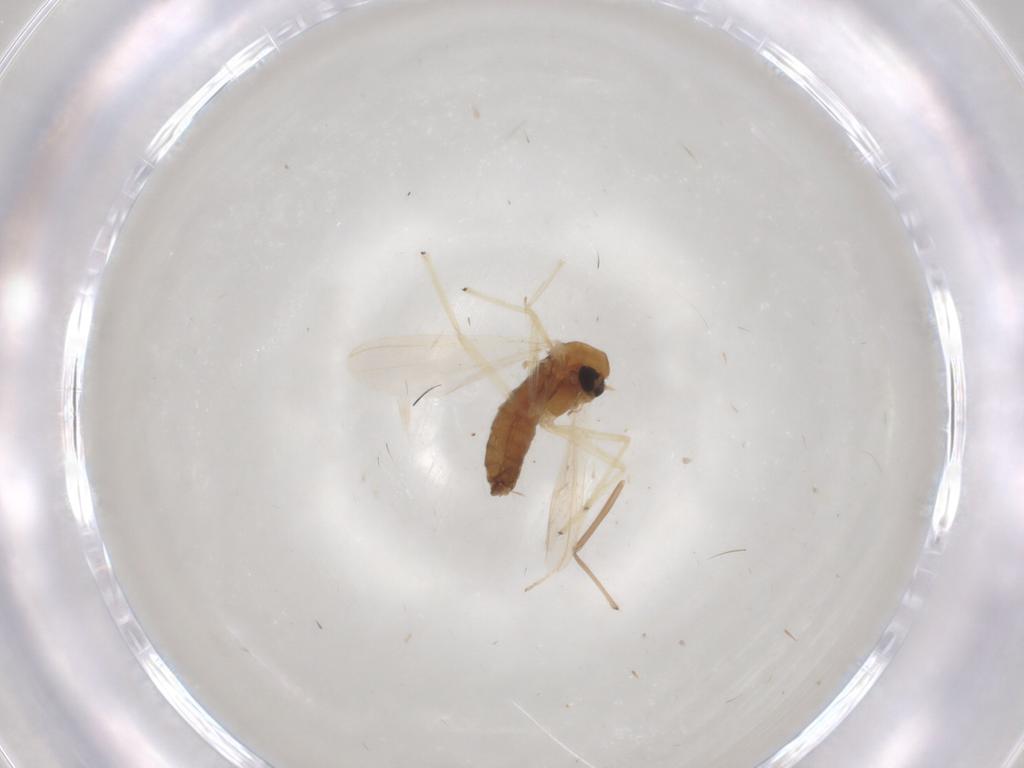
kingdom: Animalia
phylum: Arthropoda
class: Insecta
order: Diptera
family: Chironomidae
